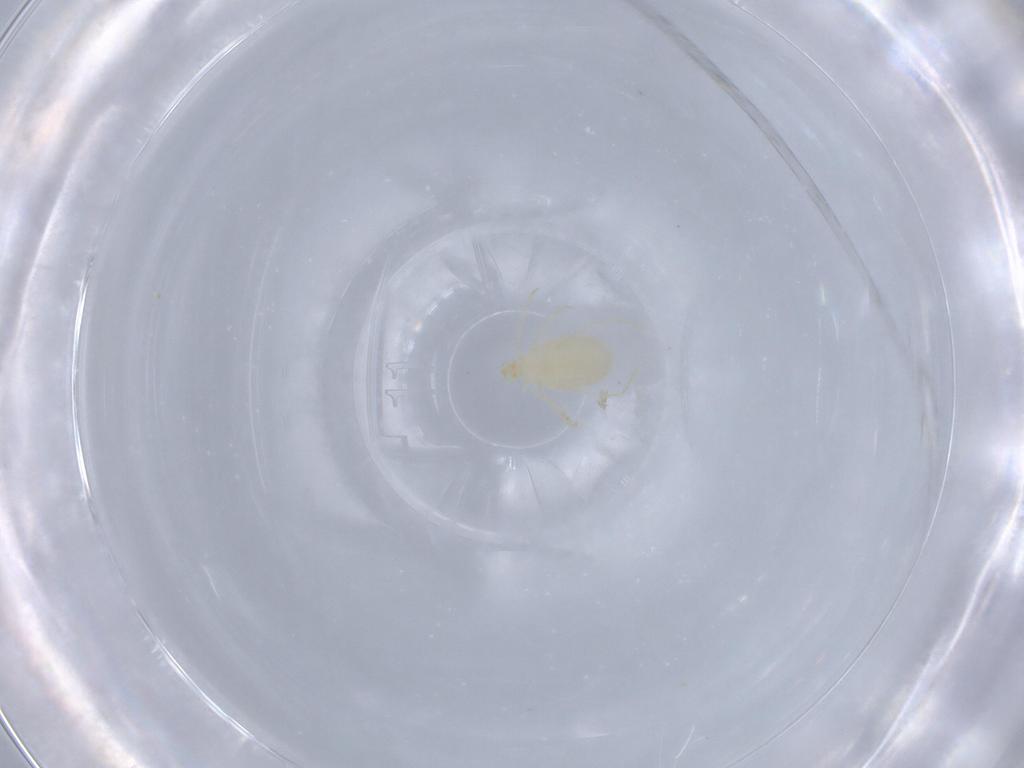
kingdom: Animalia
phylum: Arthropoda
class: Arachnida
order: Trombidiformes
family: Erythraeidae
